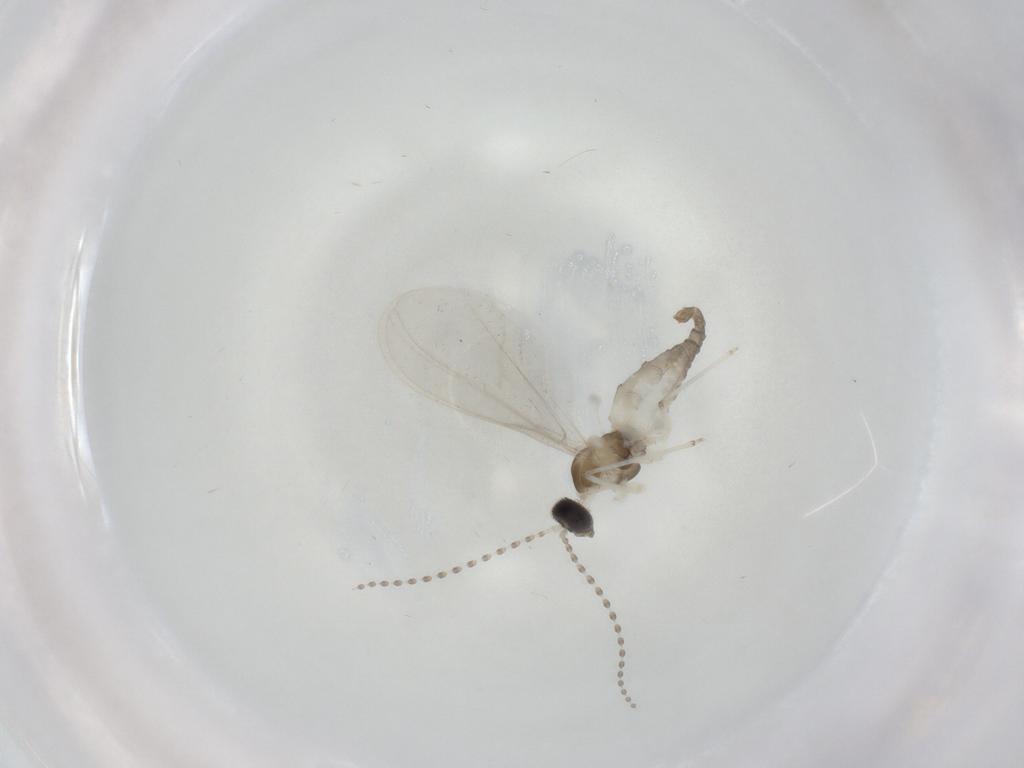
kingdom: Animalia
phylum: Arthropoda
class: Insecta
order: Diptera
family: Cecidomyiidae
